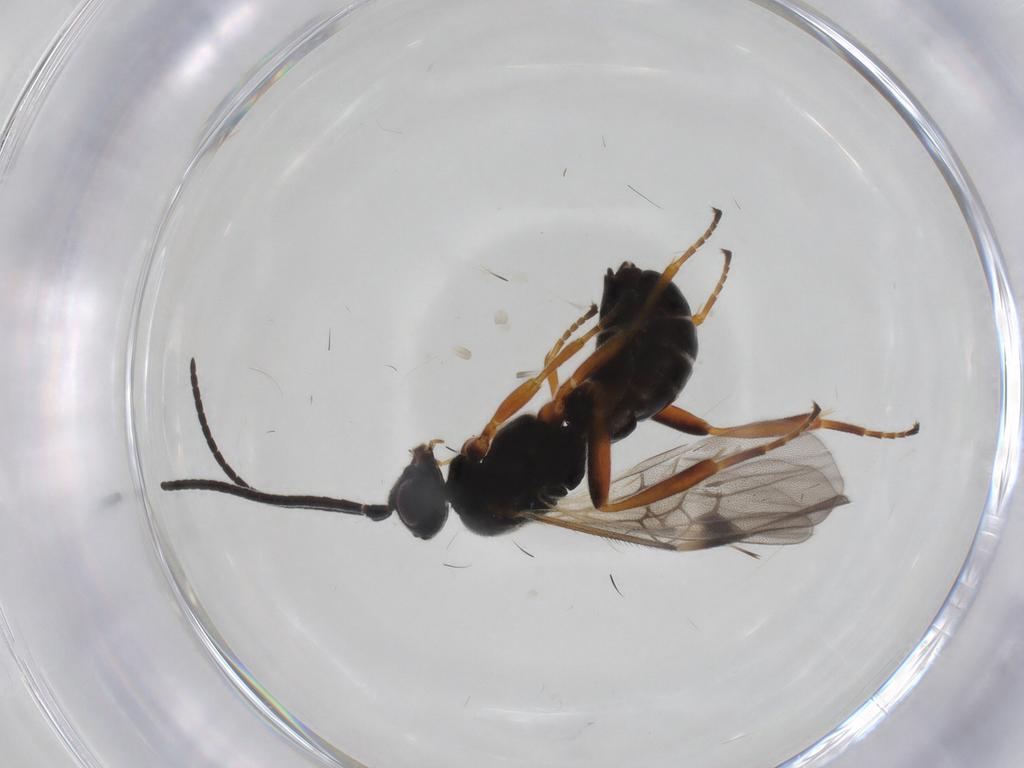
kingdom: Animalia
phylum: Arthropoda
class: Insecta
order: Hymenoptera
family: Braconidae
